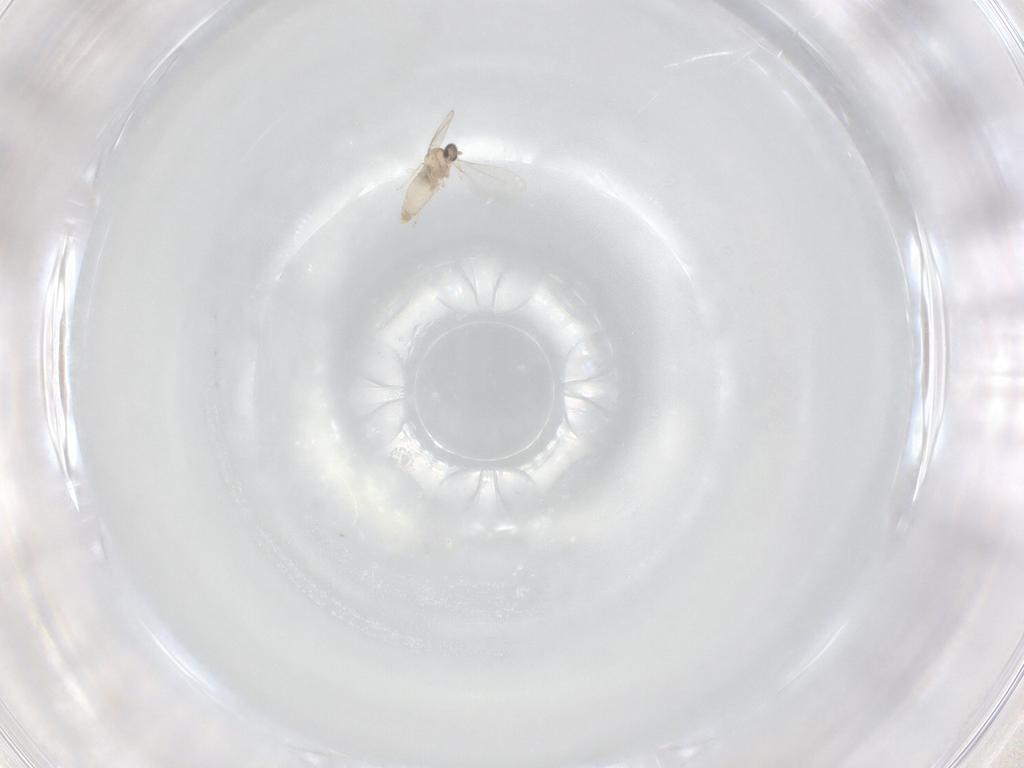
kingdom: Animalia
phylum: Arthropoda
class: Insecta
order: Diptera
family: Cecidomyiidae
